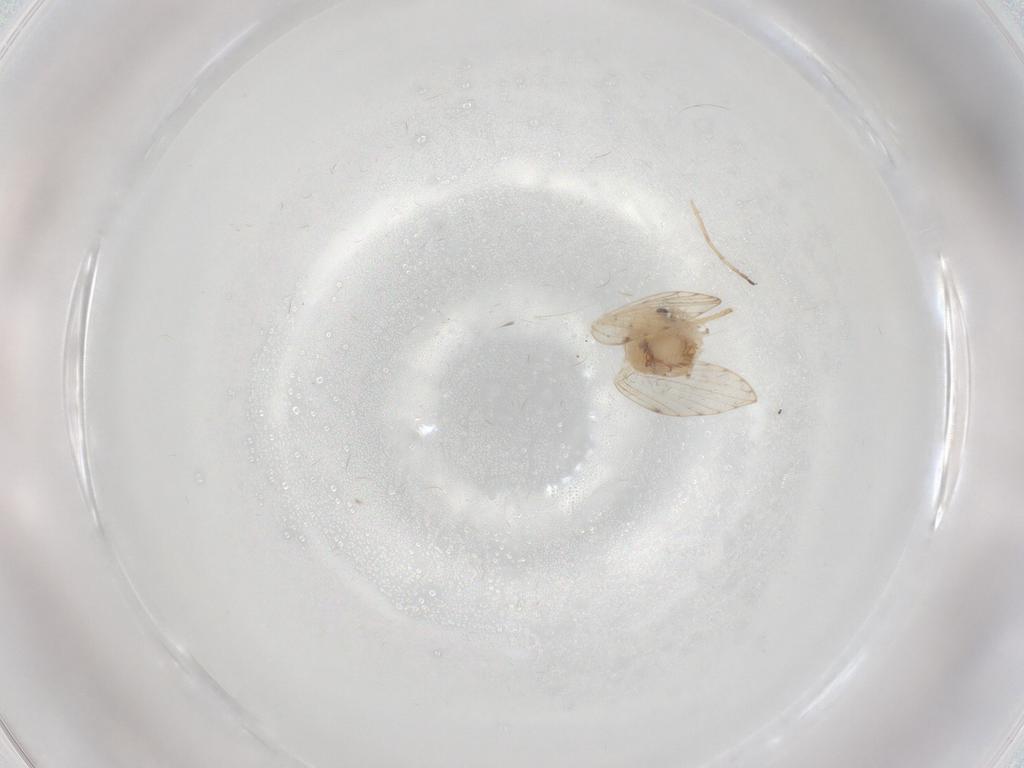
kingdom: Animalia
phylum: Arthropoda
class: Insecta
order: Diptera
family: Psychodidae
